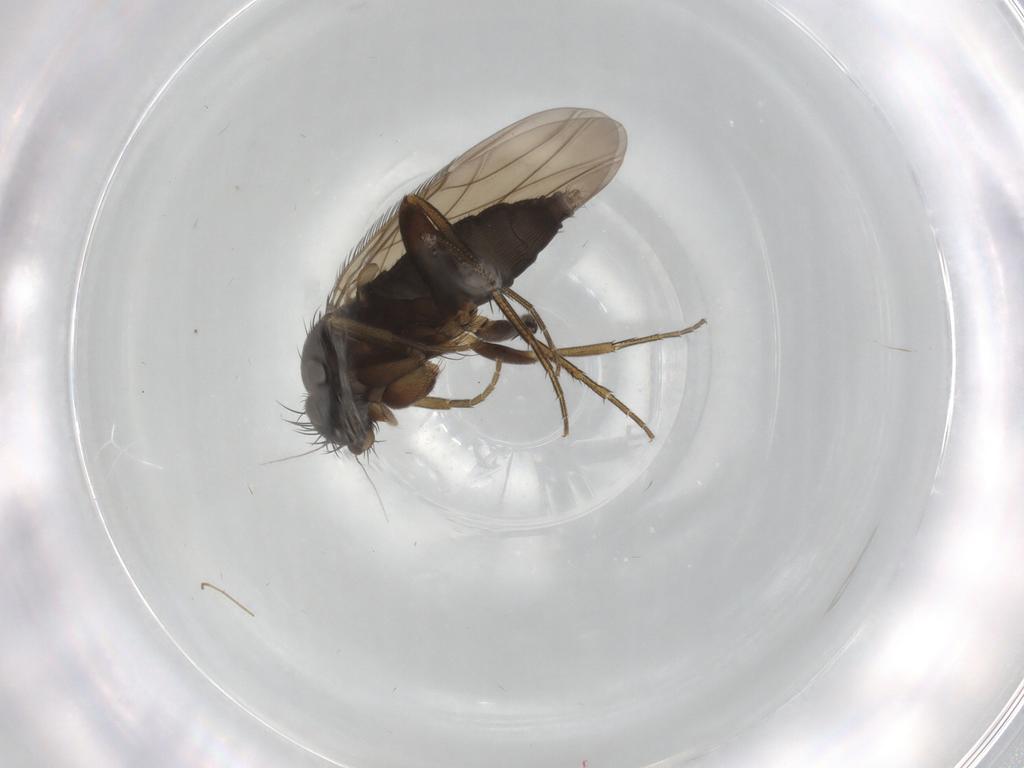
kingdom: Animalia
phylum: Arthropoda
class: Insecta
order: Diptera
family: Phoridae
